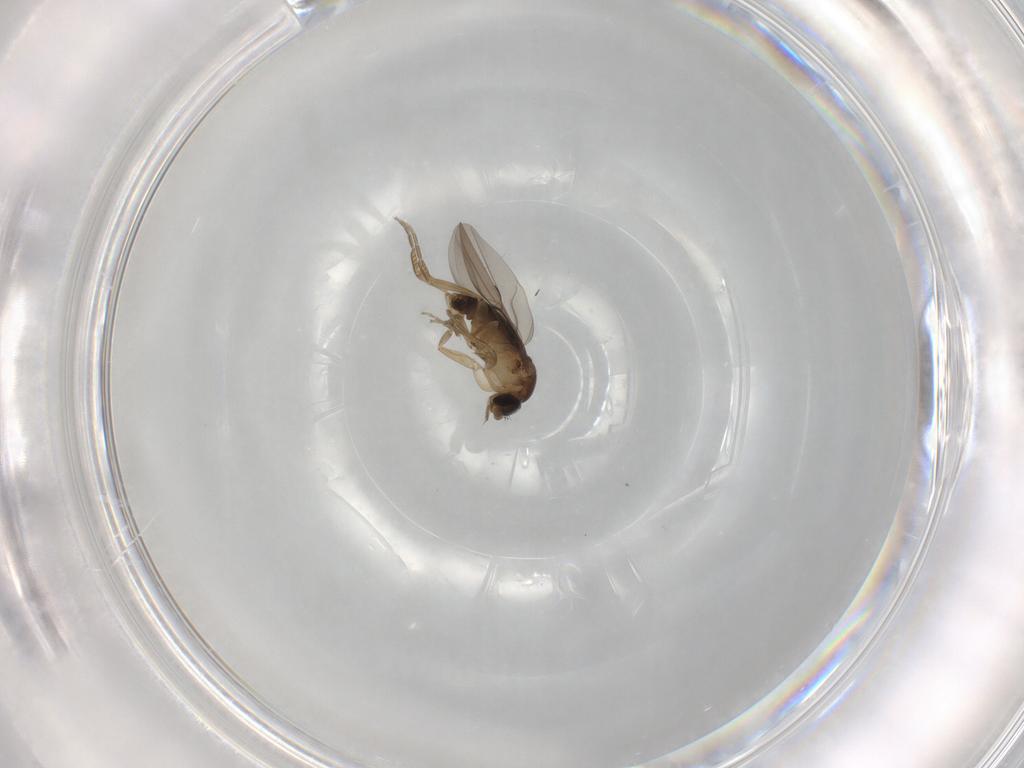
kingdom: Animalia
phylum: Arthropoda
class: Insecta
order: Diptera
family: Phoridae
